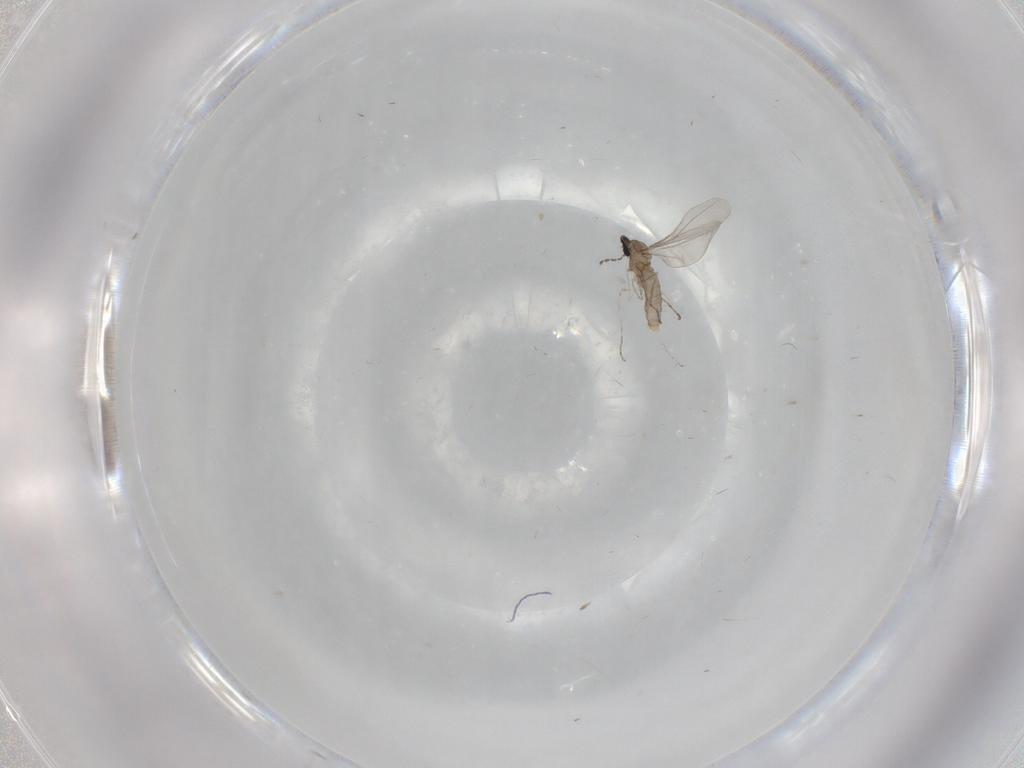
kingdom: Animalia
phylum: Arthropoda
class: Insecta
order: Diptera
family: Cecidomyiidae
